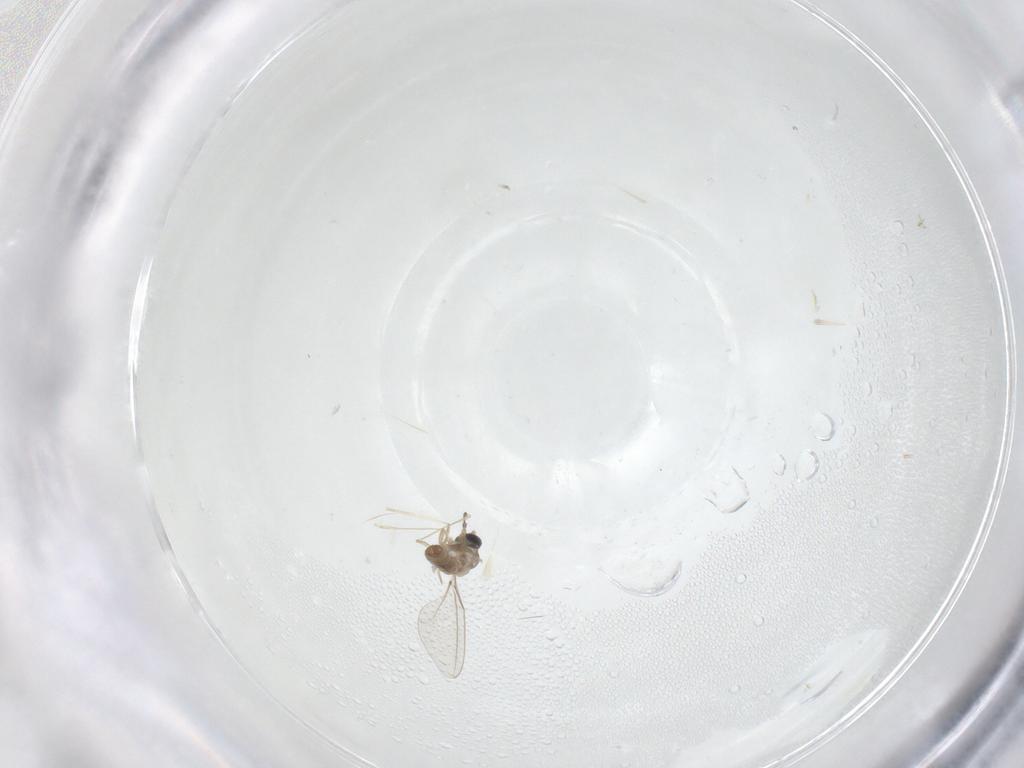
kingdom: Animalia
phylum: Arthropoda
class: Insecta
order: Diptera
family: Cecidomyiidae
